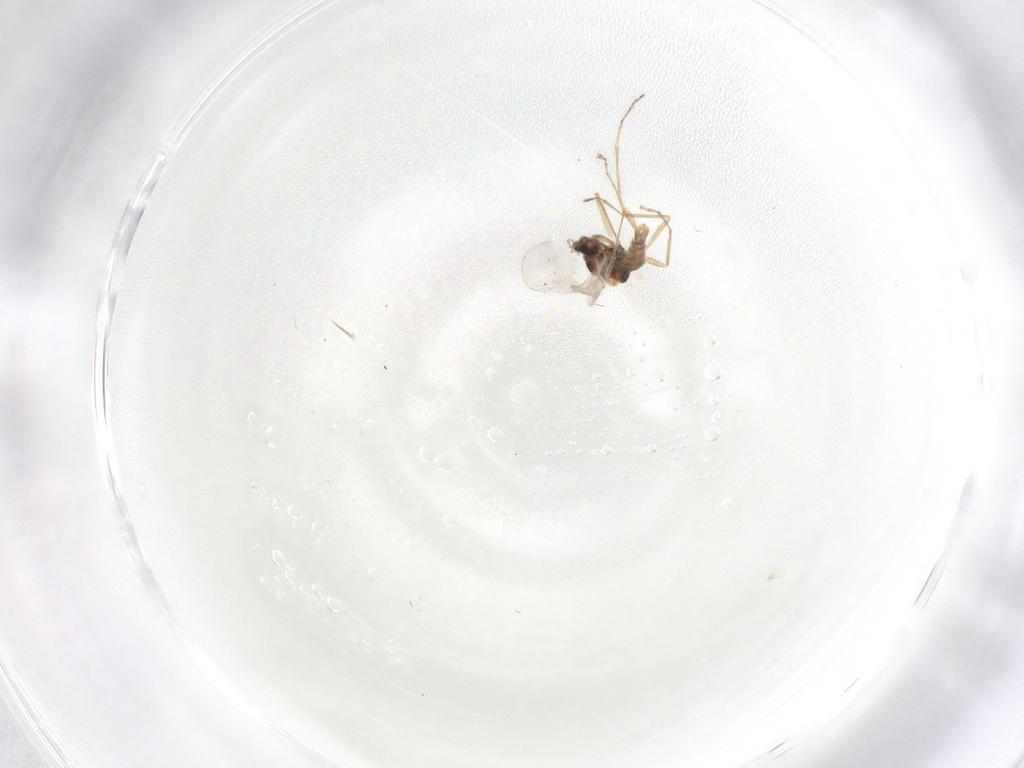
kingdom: Animalia
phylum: Arthropoda
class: Insecta
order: Diptera
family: Cecidomyiidae
